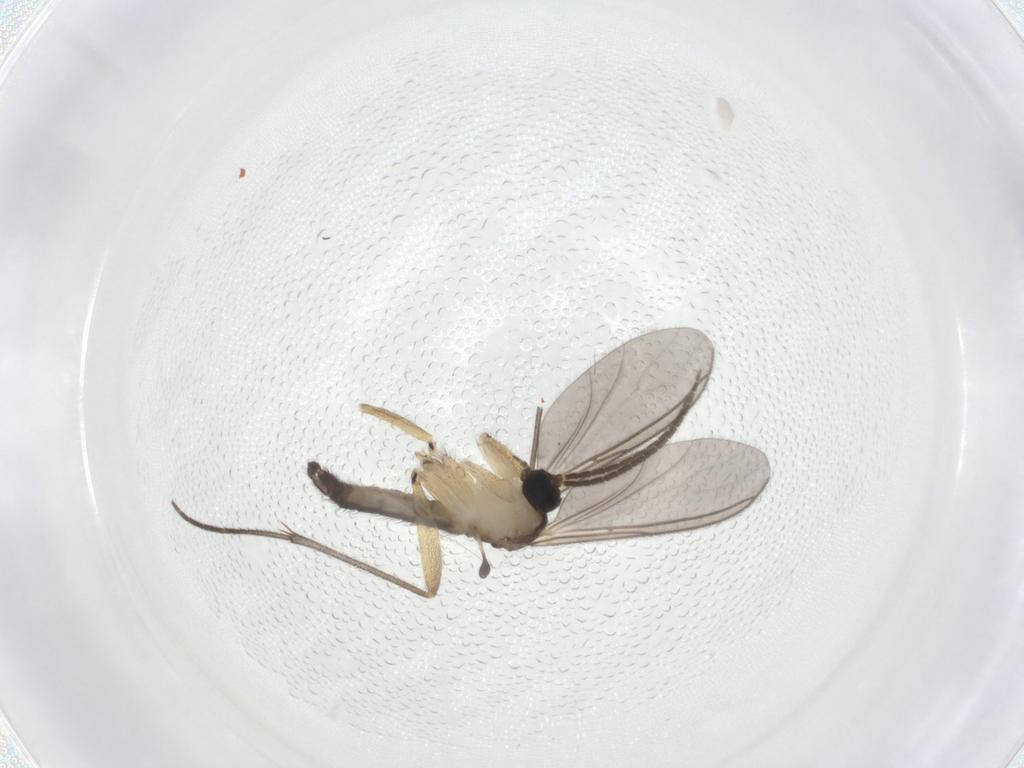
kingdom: Animalia
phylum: Arthropoda
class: Insecta
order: Diptera
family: Sciaridae
